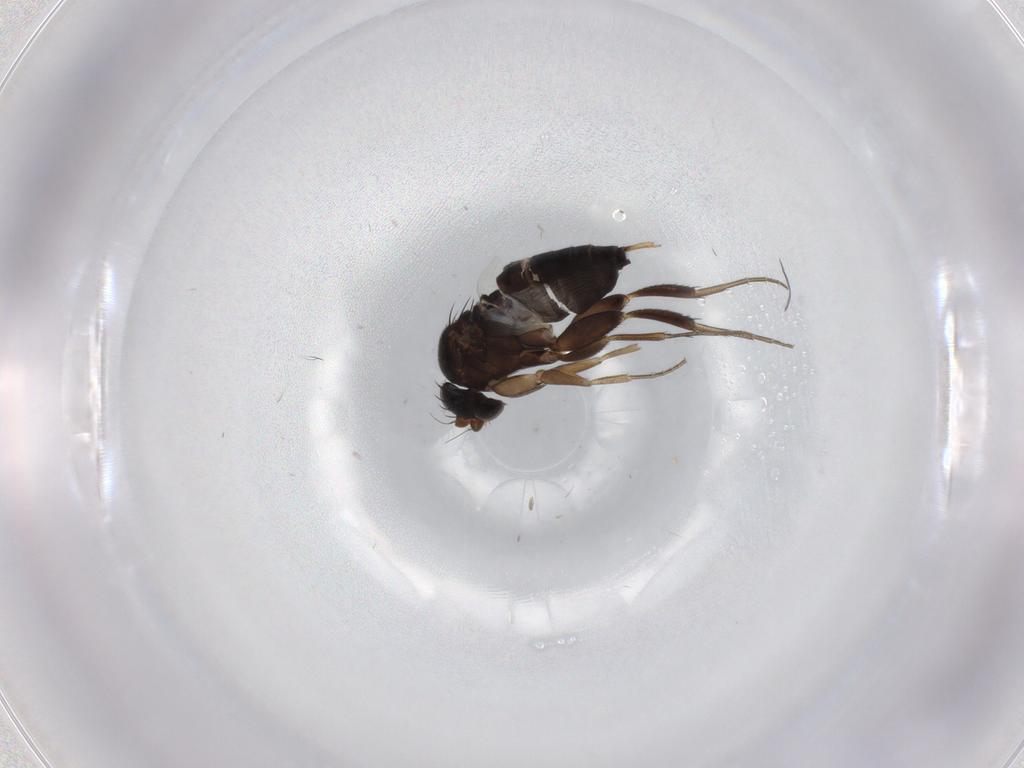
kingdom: Animalia
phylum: Arthropoda
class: Insecta
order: Diptera
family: Phoridae
